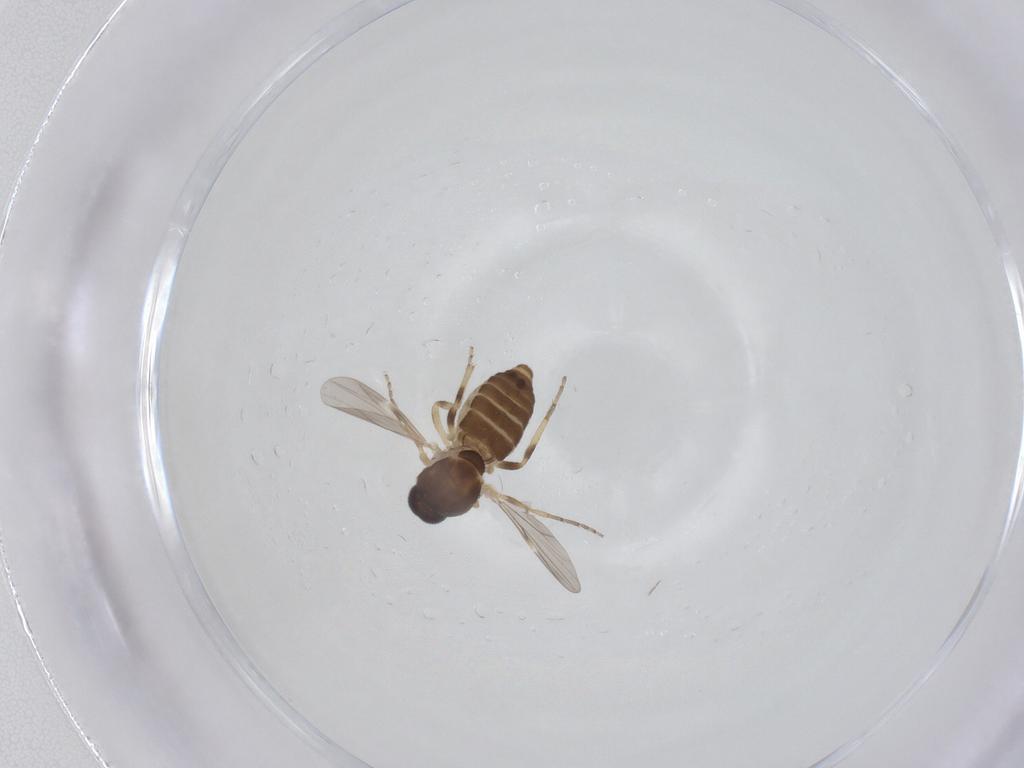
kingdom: Animalia
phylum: Arthropoda
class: Insecta
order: Diptera
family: Ceratopogonidae
